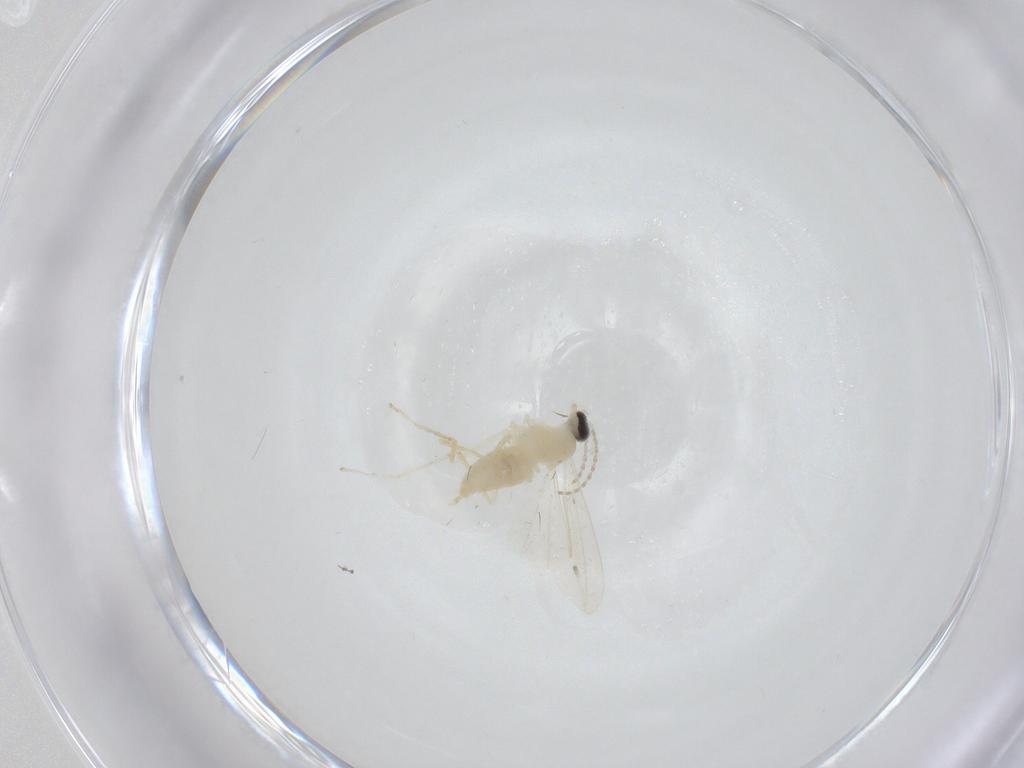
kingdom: Animalia
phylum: Arthropoda
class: Insecta
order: Diptera
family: Cecidomyiidae
